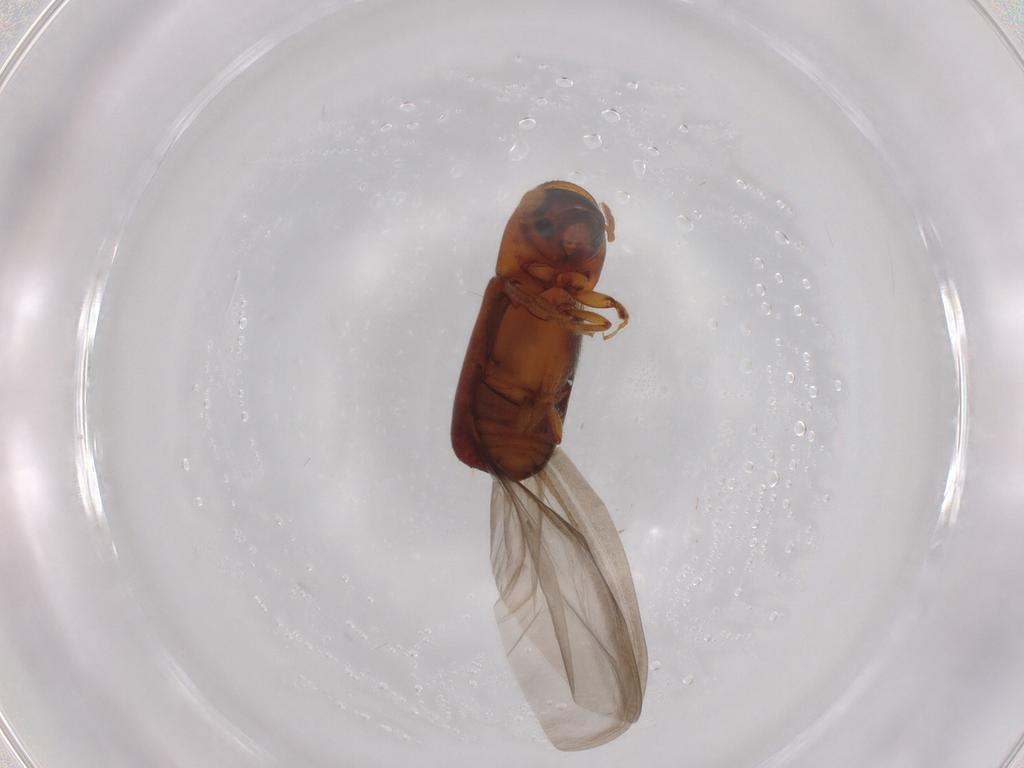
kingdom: Animalia
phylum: Arthropoda
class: Insecta
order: Coleoptera
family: Curculionidae
